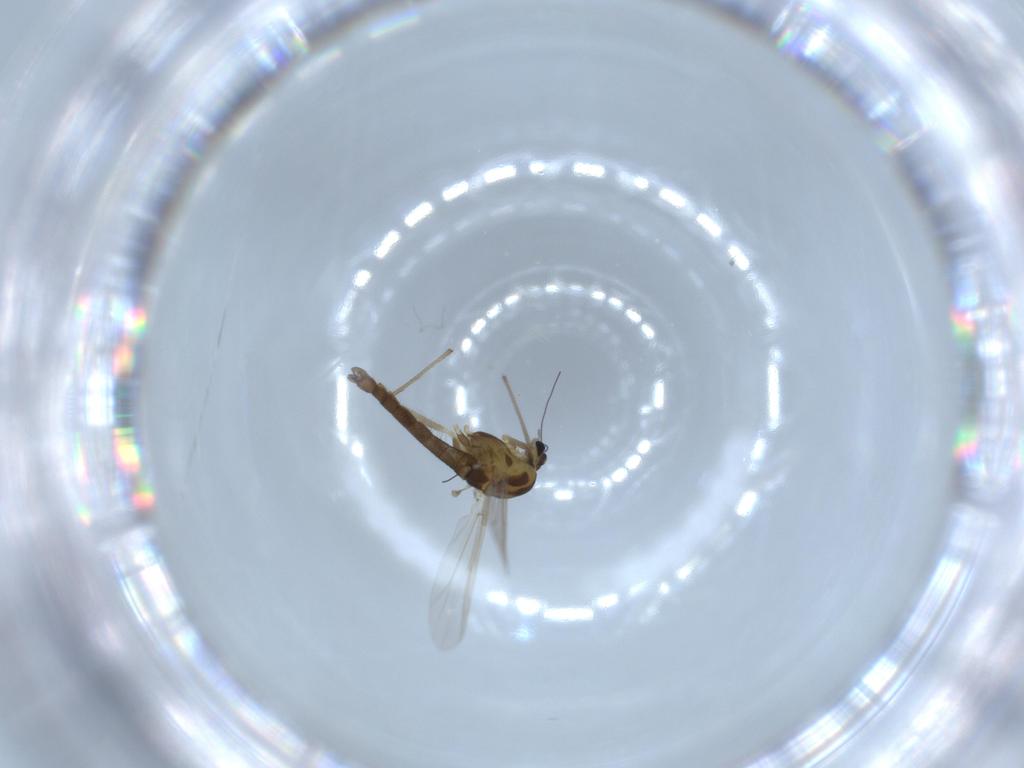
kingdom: Animalia
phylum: Arthropoda
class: Insecta
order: Diptera
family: Chironomidae
